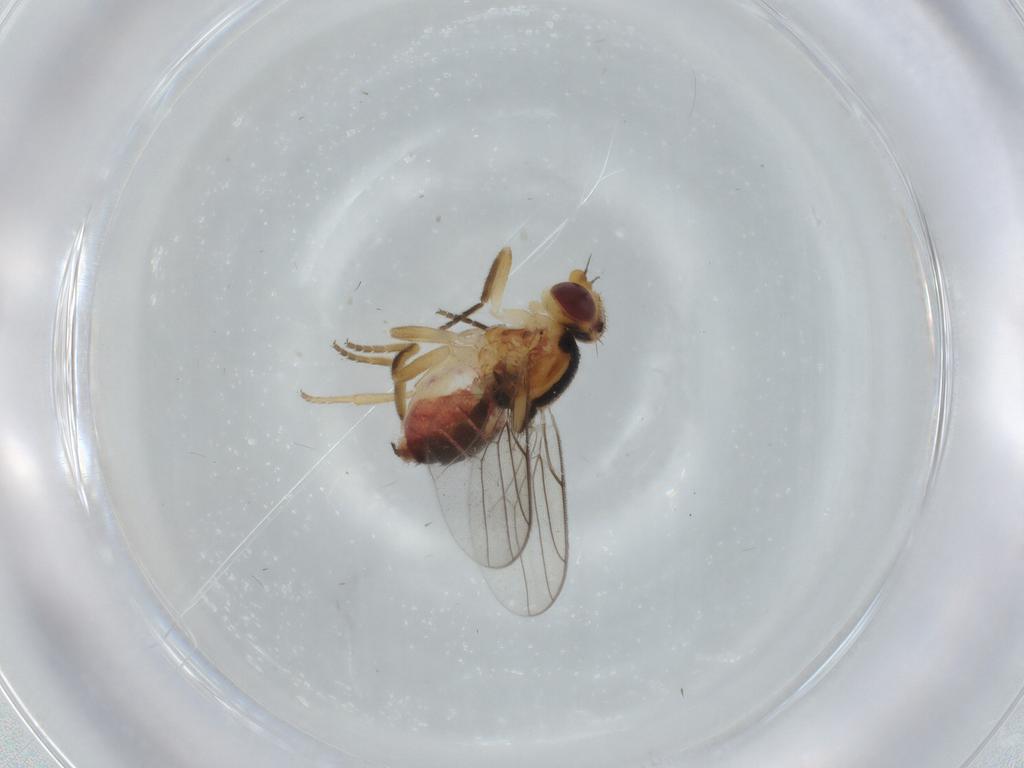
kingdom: Animalia
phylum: Arthropoda
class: Insecta
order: Diptera
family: Chloropidae
